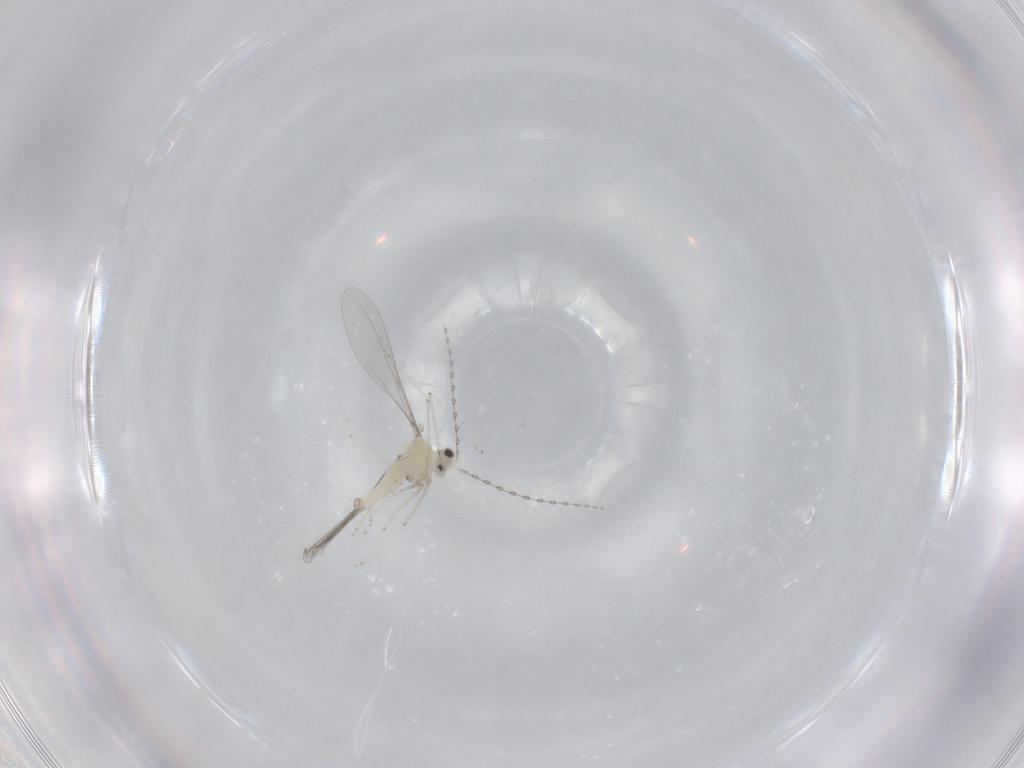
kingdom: Animalia
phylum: Arthropoda
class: Insecta
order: Diptera
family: Cecidomyiidae
